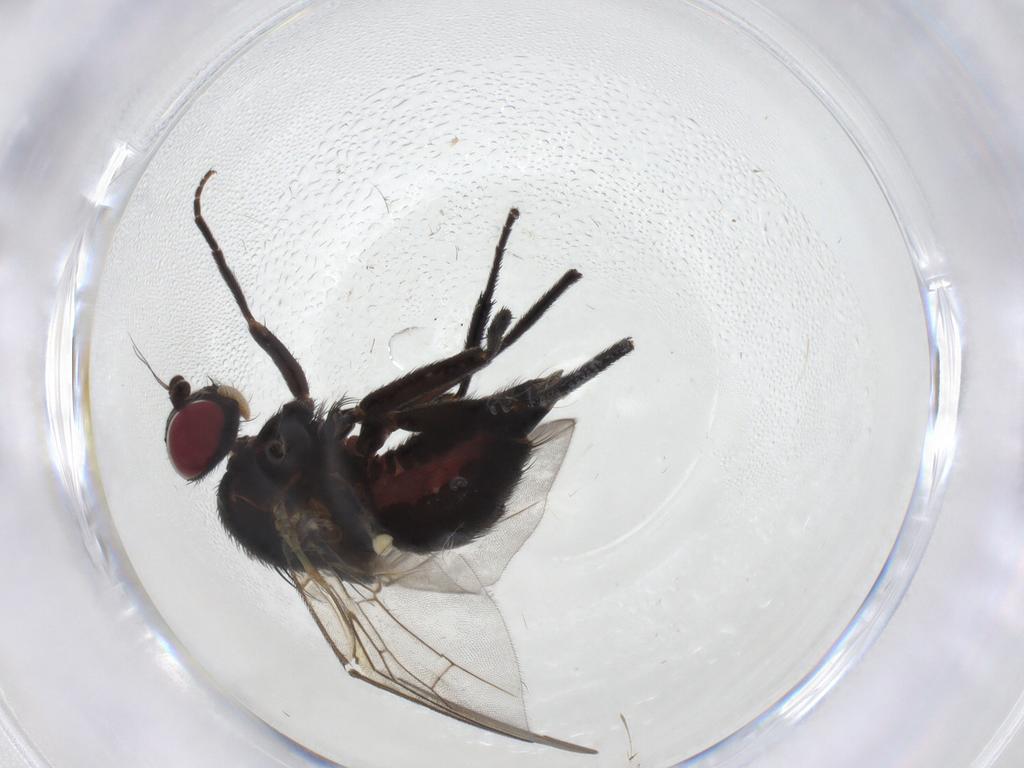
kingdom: Animalia
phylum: Arthropoda
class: Insecta
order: Diptera
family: Agromyzidae
